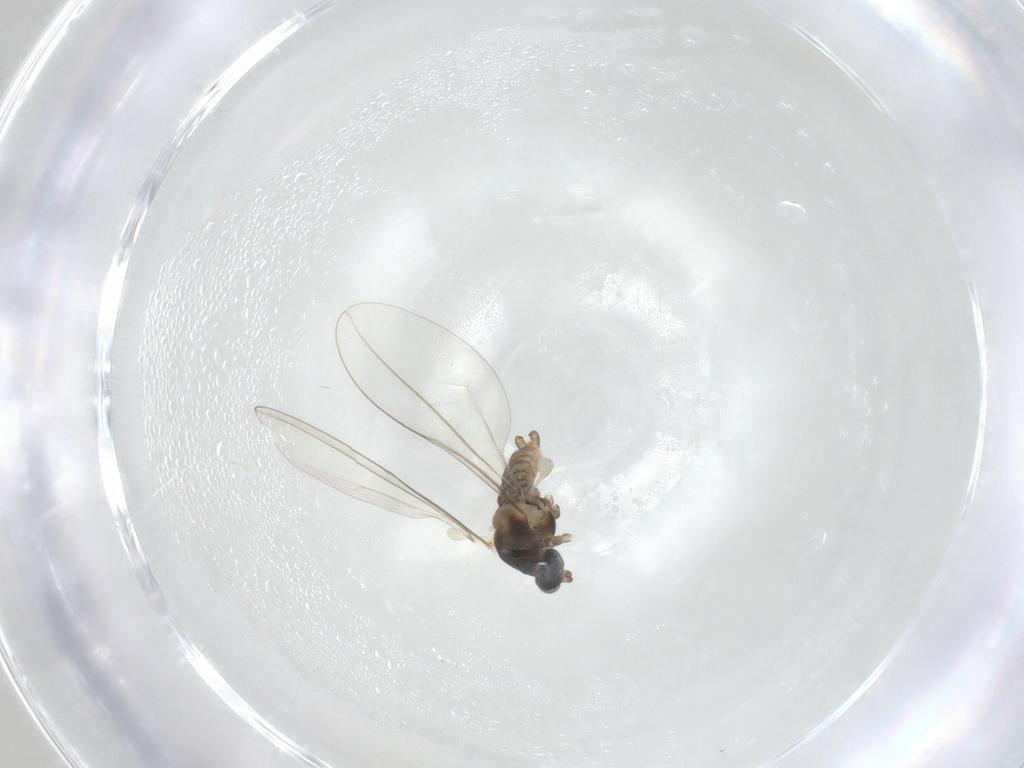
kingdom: Animalia
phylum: Arthropoda
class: Insecta
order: Diptera
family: Cecidomyiidae
